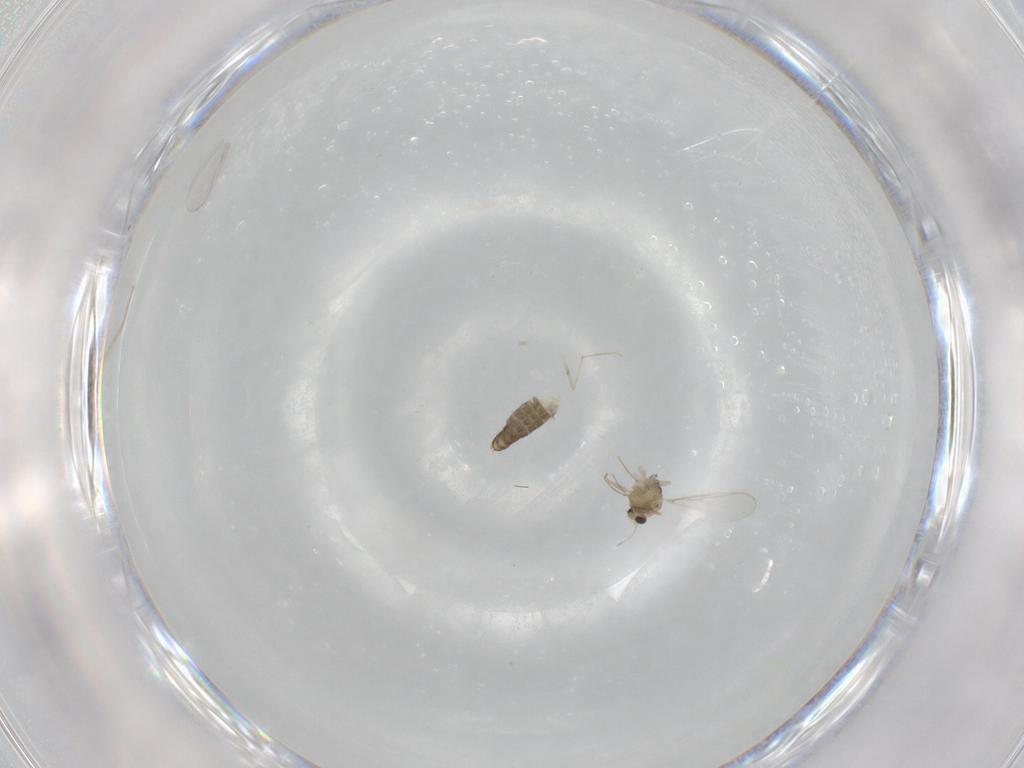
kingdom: Animalia
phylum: Arthropoda
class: Insecta
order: Diptera
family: Chironomidae
